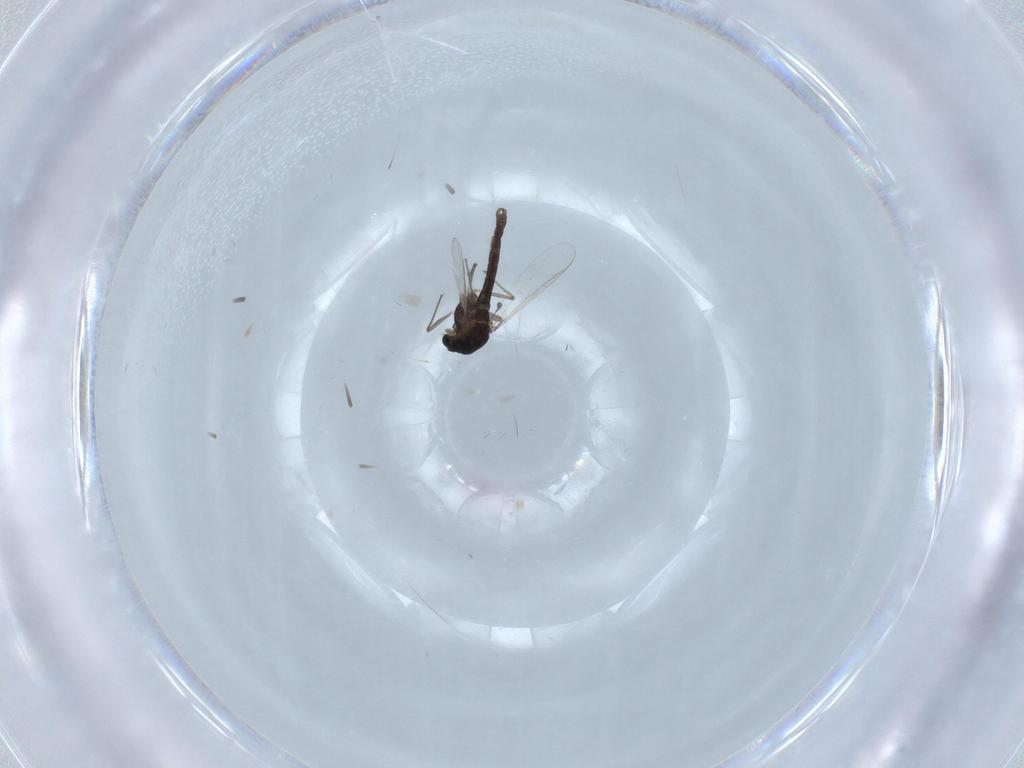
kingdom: Animalia
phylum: Arthropoda
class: Insecta
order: Diptera
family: Chironomidae
